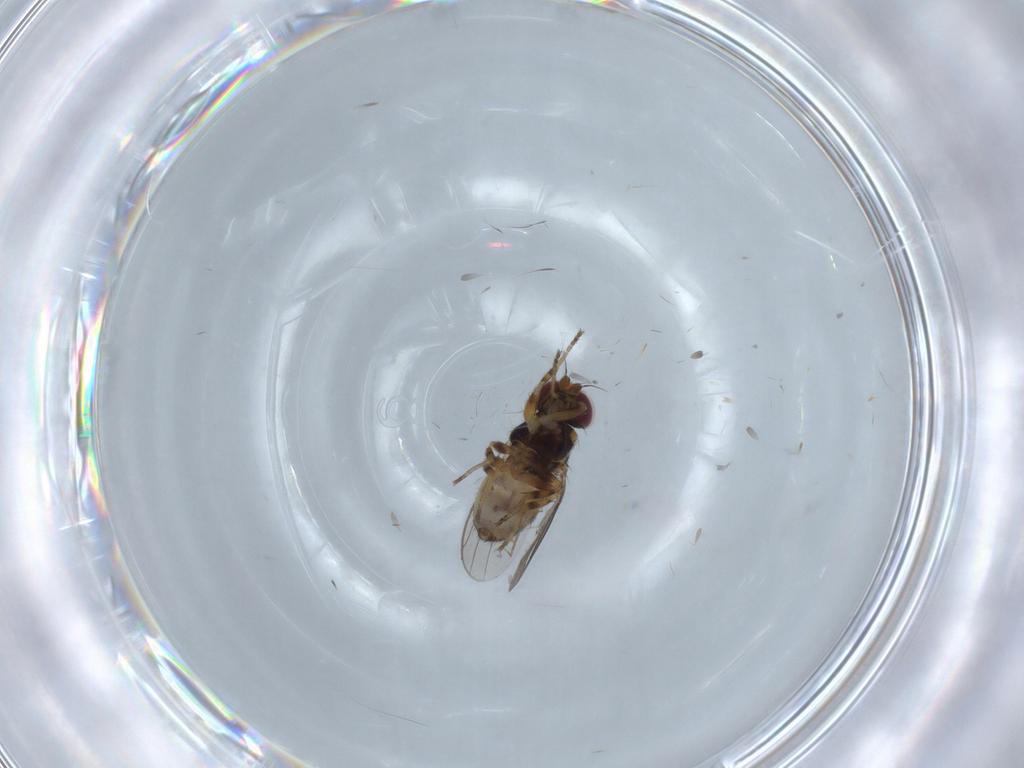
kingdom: Animalia
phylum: Arthropoda
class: Insecta
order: Diptera
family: Chloropidae
